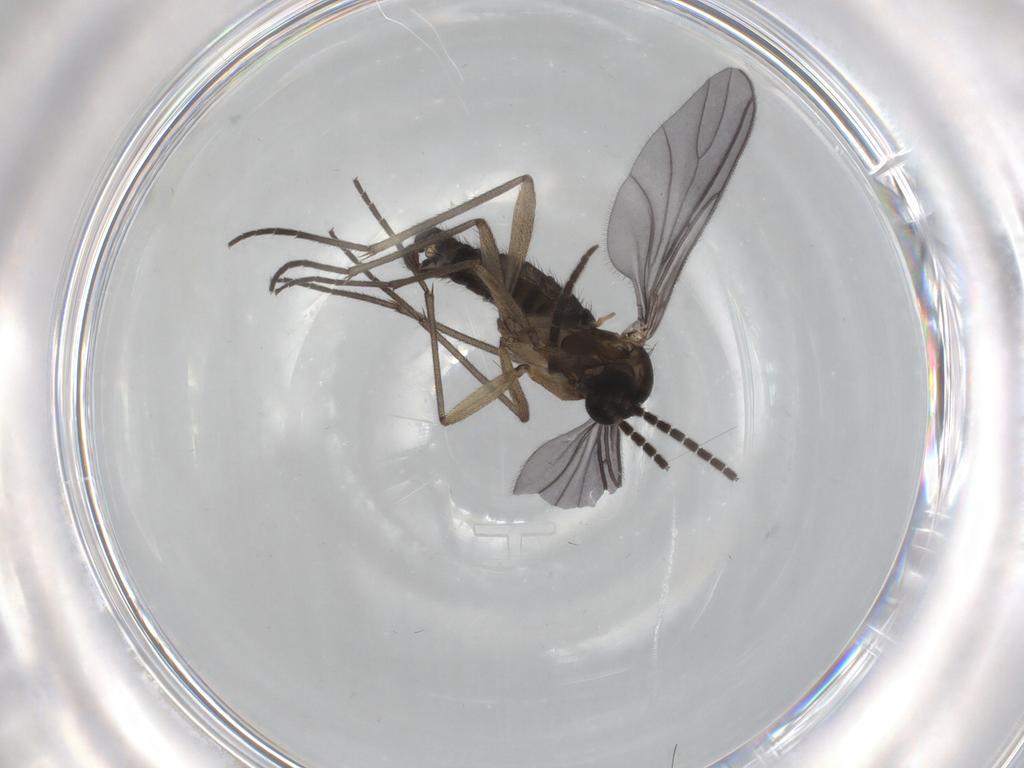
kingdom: Animalia
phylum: Arthropoda
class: Insecta
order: Diptera
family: Sciaridae
